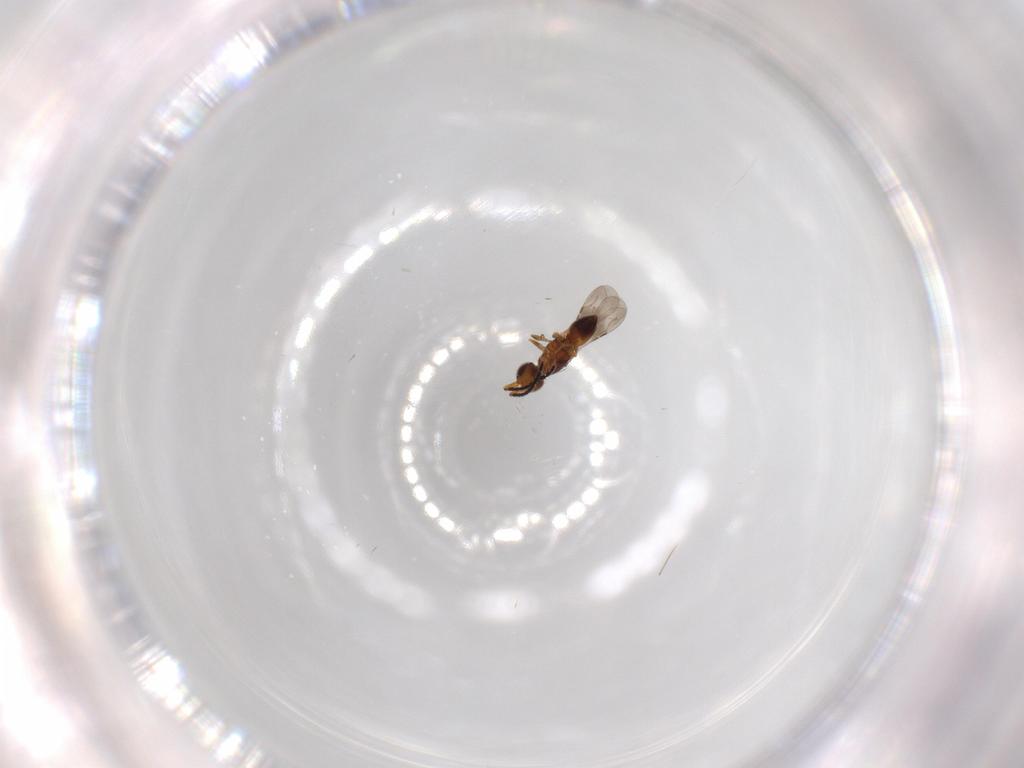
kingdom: Animalia
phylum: Arthropoda
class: Insecta
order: Hymenoptera
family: Ceraphronidae
